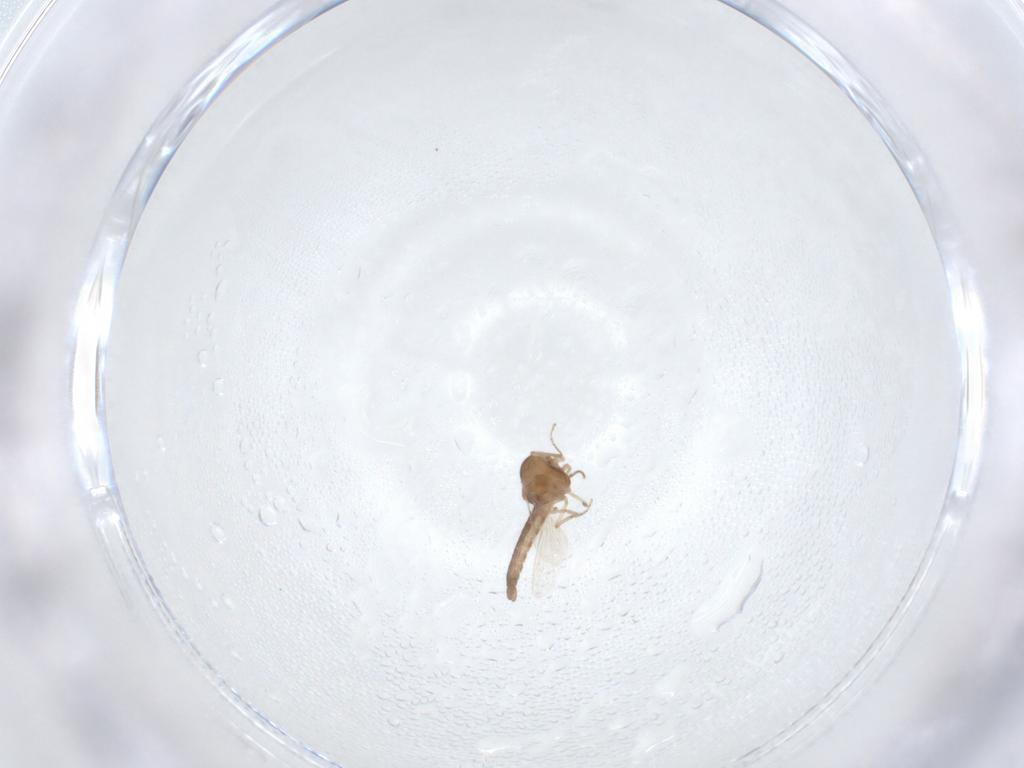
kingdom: Animalia
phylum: Arthropoda
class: Insecta
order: Diptera
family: Ceratopogonidae
